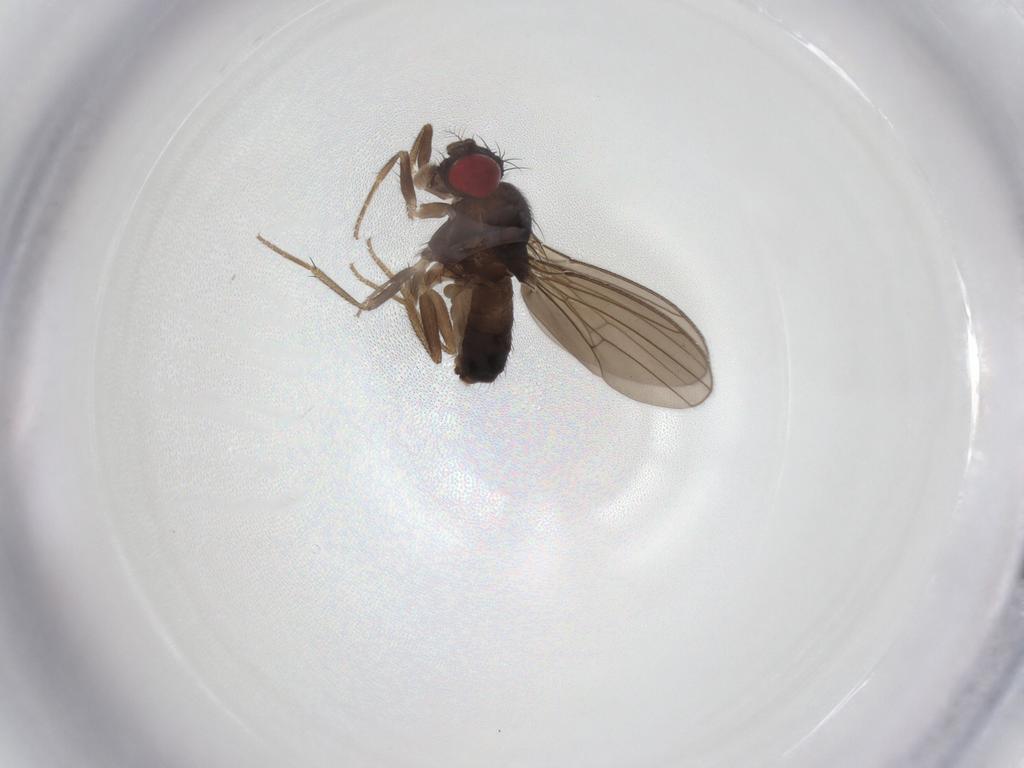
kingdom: Animalia
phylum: Arthropoda
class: Insecta
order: Diptera
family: Drosophilidae
